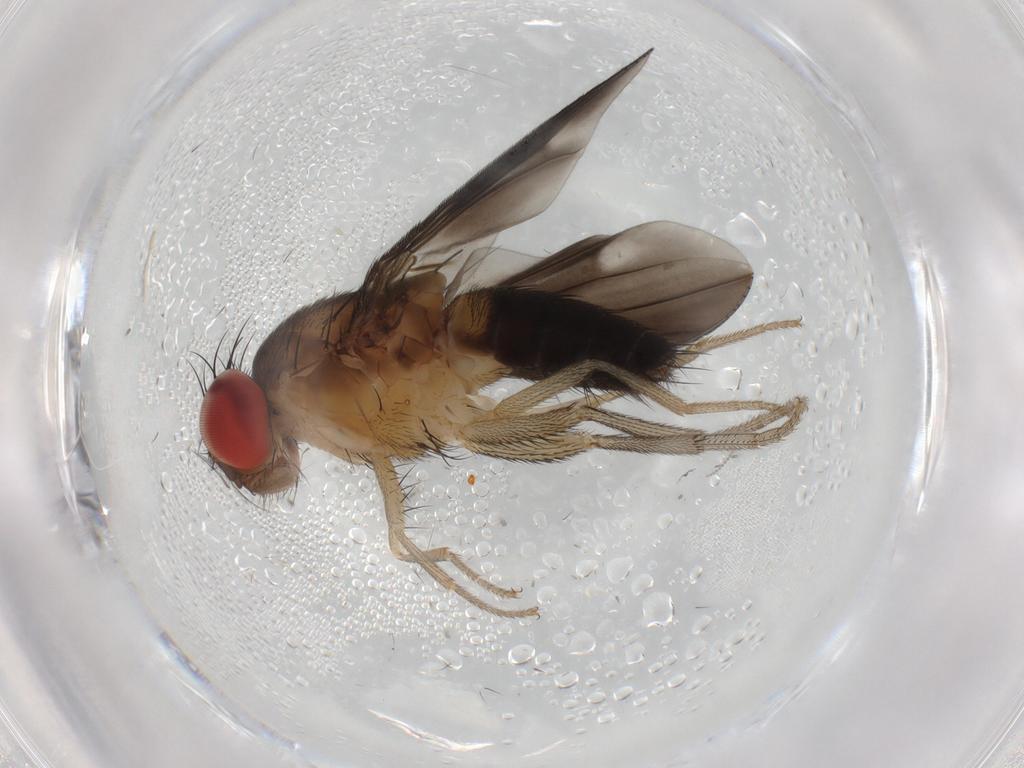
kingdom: Animalia
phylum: Arthropoda
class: Insecta
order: Diptera
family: Drosophilidae
